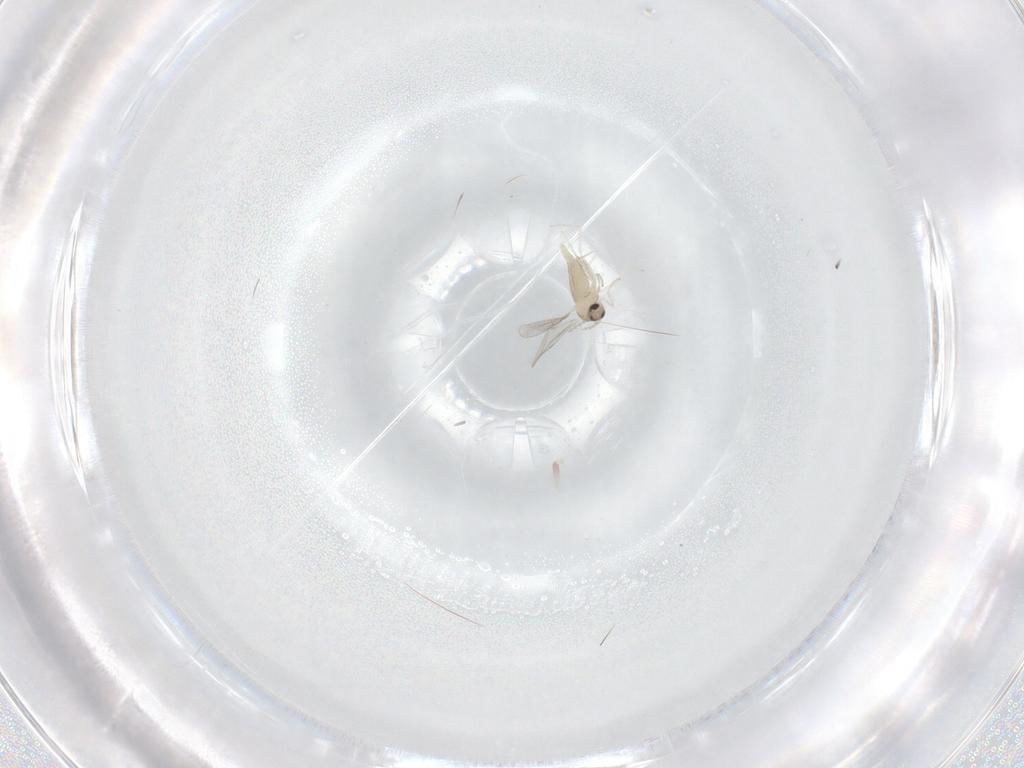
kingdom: Animalia
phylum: Arthropoda
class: Insecta
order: Diptera
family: Cecidomyiidae
